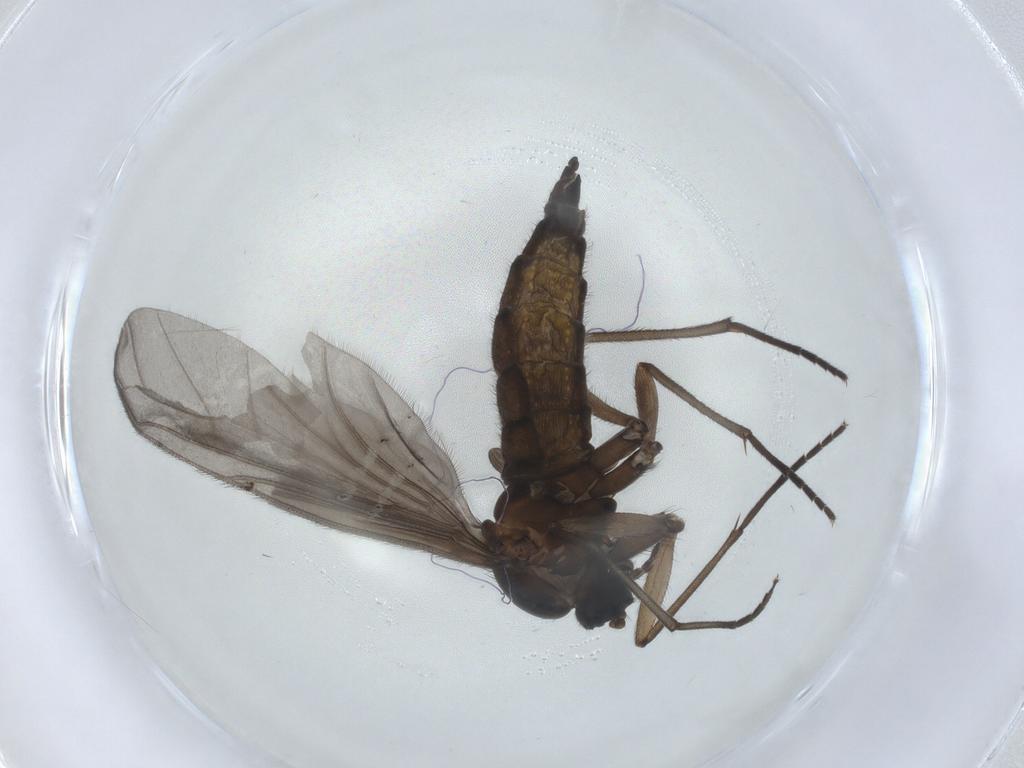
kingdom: Animalia
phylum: Arthropoda
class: Insecta
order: Diptera
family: Sciaridae
